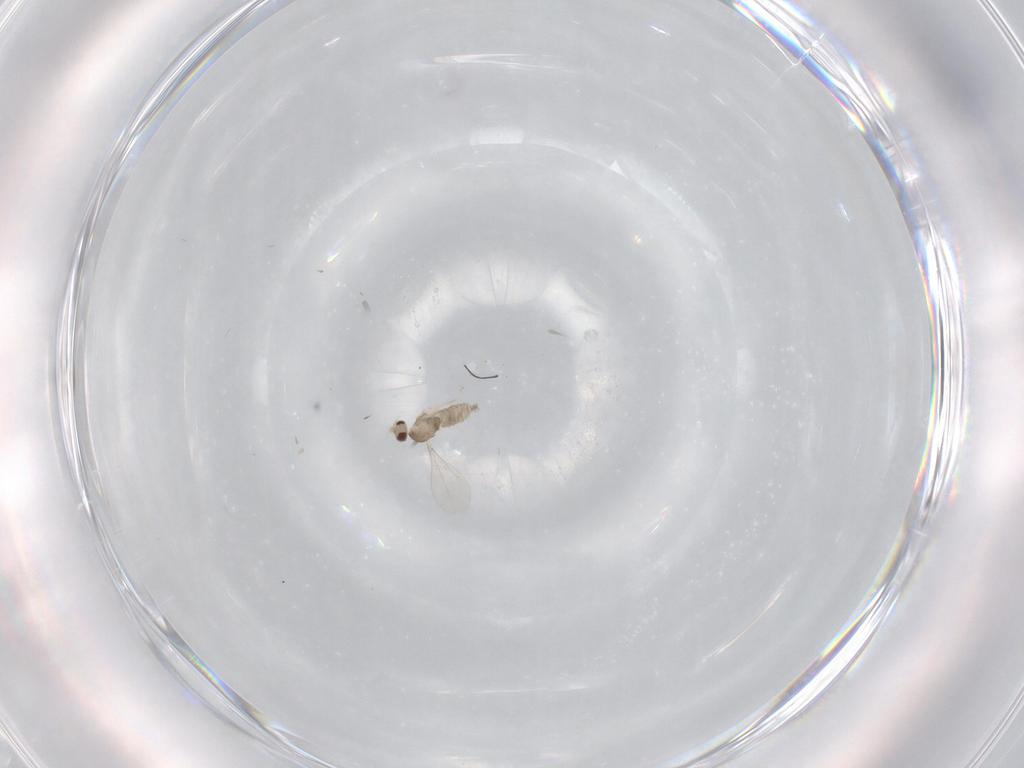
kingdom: Animalia
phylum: Arthropoda
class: Insecta
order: Diptera
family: Cecidomyiidae
